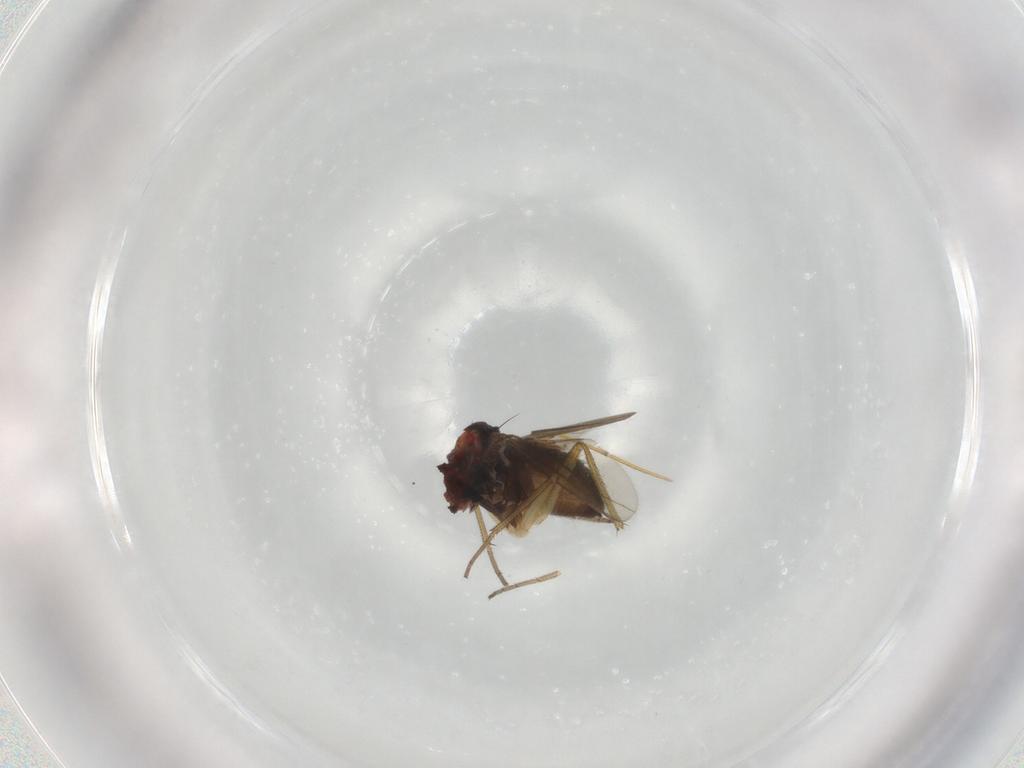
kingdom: Animalia
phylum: Arthropoda
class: Insecta
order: Diptera
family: Dolichopodidae
